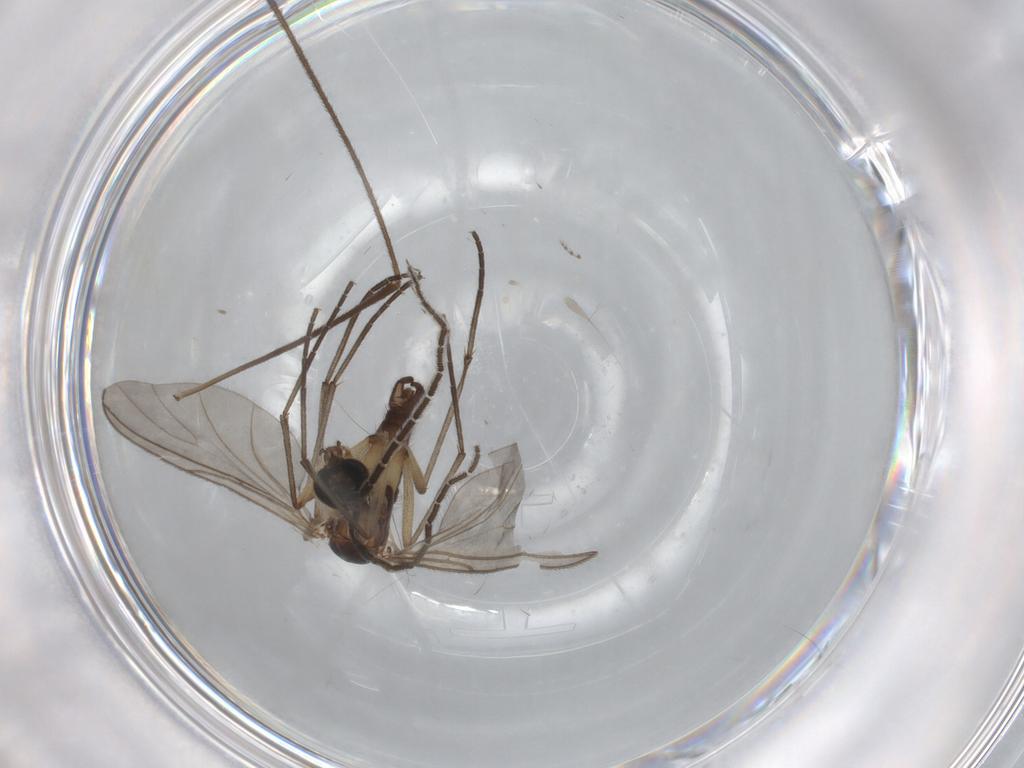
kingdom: Animalia
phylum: Arthropoda
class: Insecta
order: Diptera
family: Sciaridae
